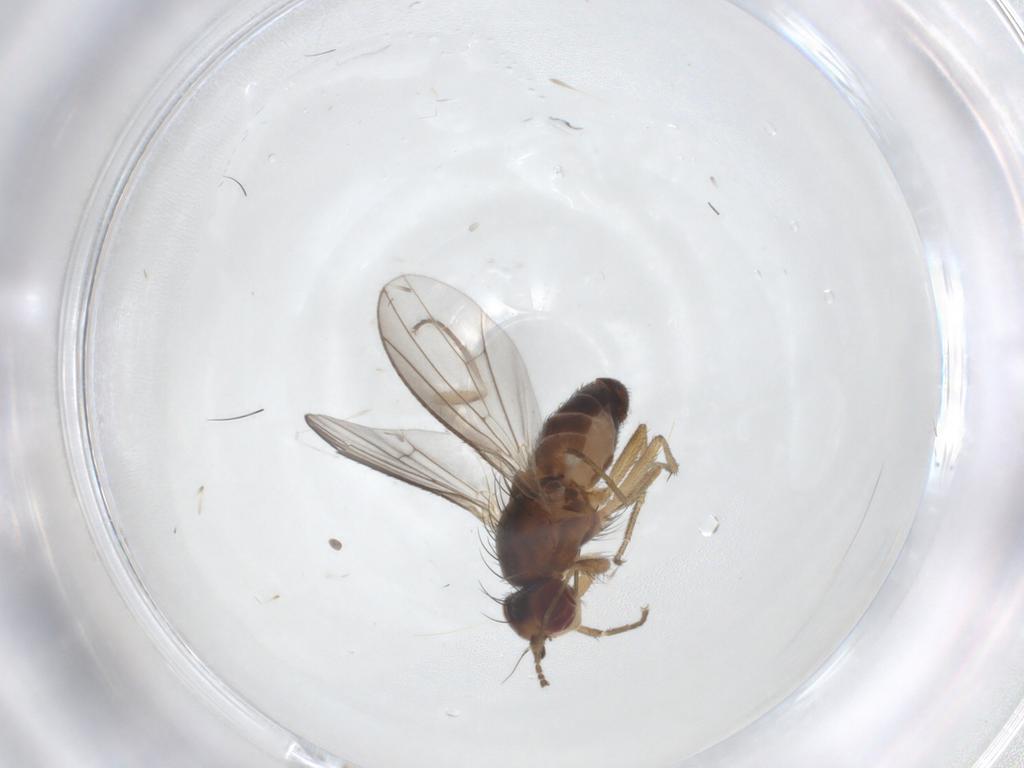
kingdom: Animalia
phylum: Arthropoda
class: Insecta
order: Diptera
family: Heleomyzidae
